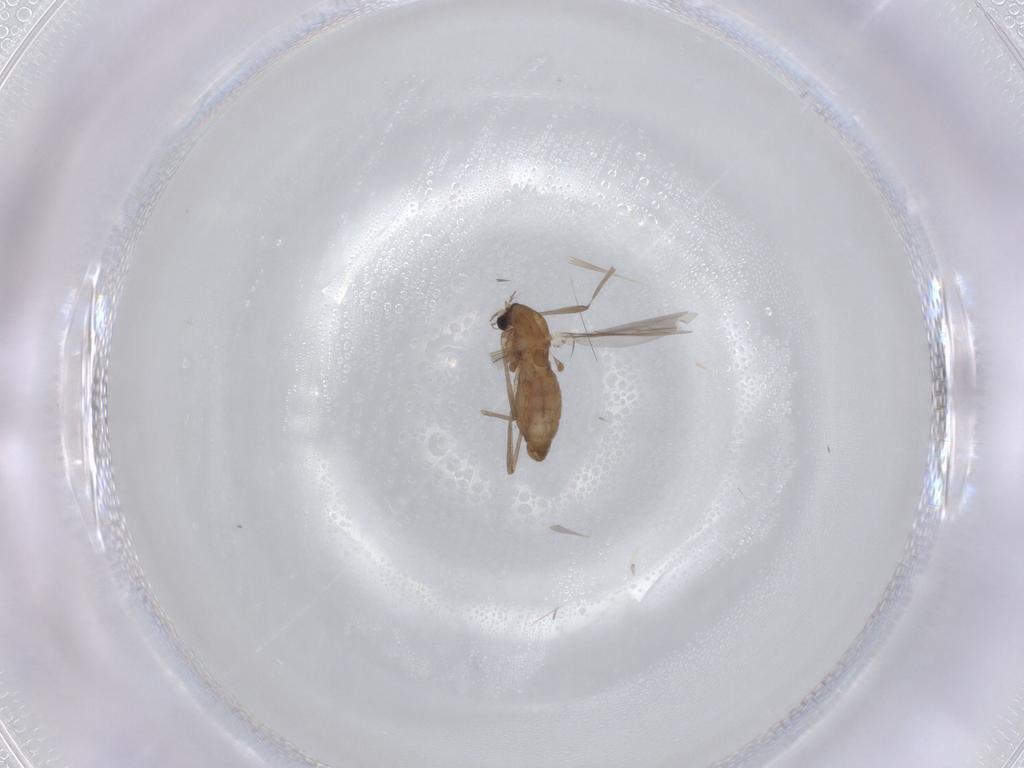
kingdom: Animalia
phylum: Arthropoda
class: Insecta
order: Diptera
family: Chironomidae
